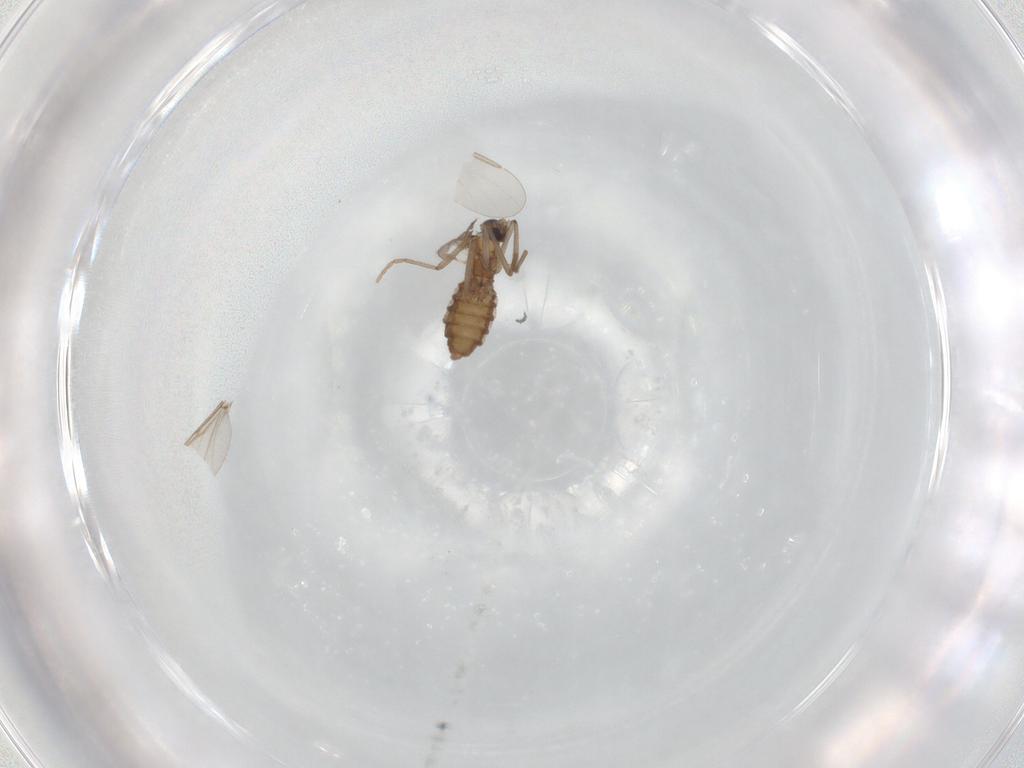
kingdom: Animalia
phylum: Arthropoda
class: Insecta
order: Diptera
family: Cecidomyiidae
